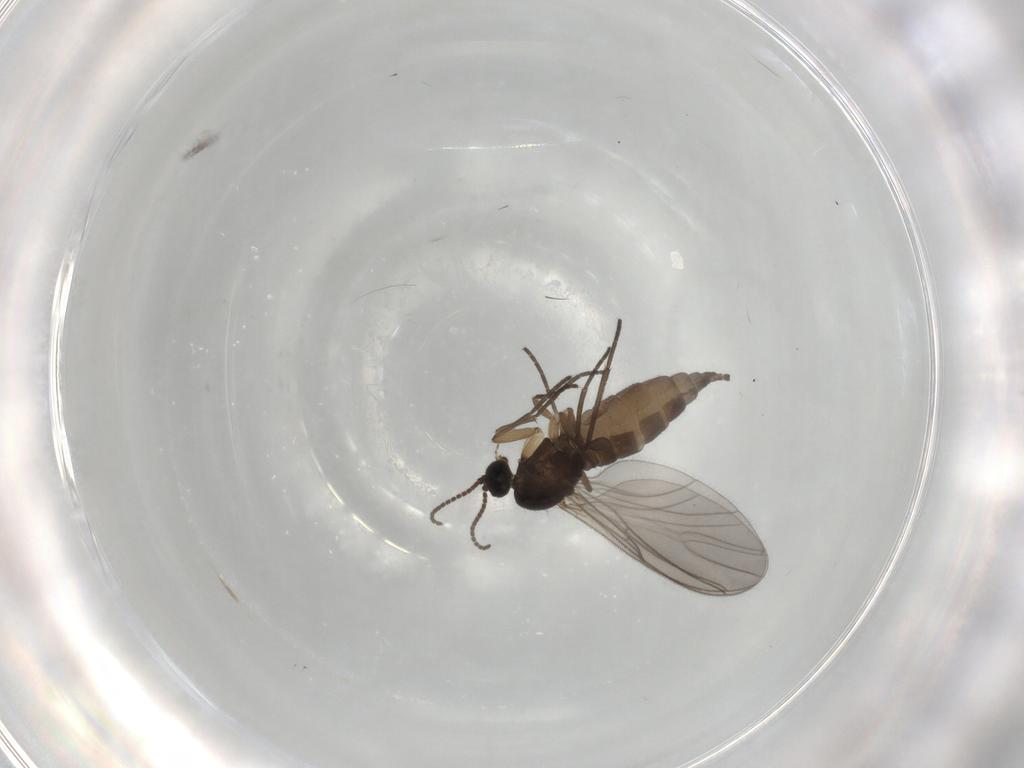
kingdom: Animalia
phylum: Arthropoda
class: Insecta
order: Diptera
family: Sciaridae
